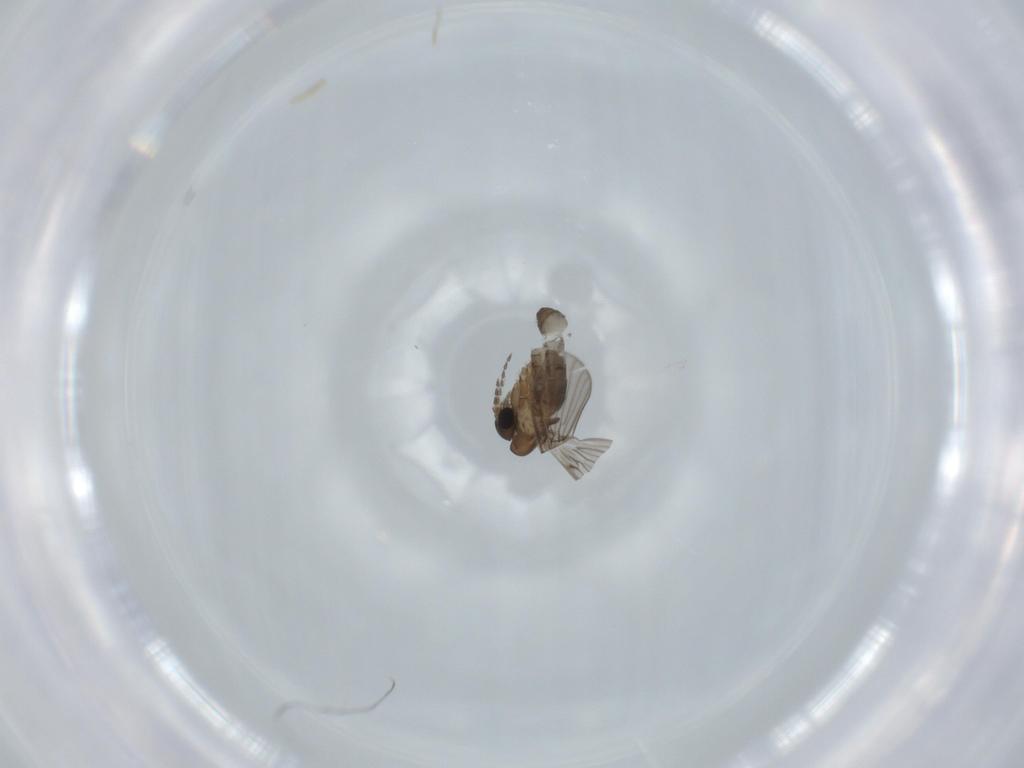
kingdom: Animalia
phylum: Arthropoda
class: Insecta
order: Diptera
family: Psychodidae
